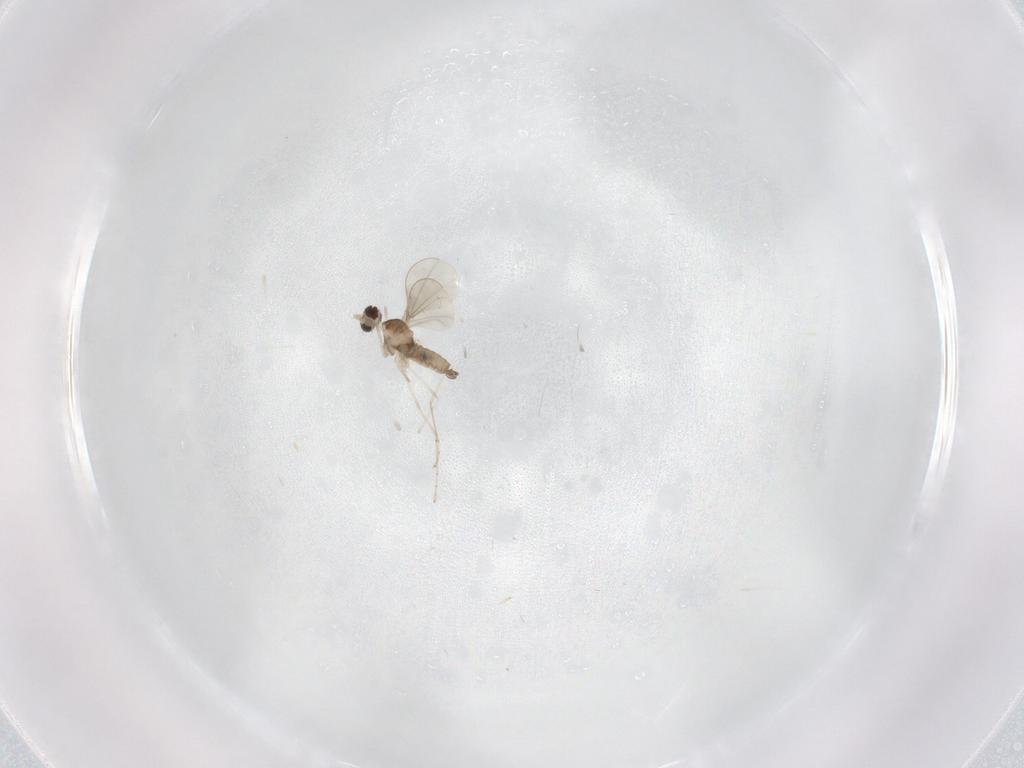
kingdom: Animalia
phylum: Arthropoda
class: Insecta
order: Diptera
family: Phoridae
